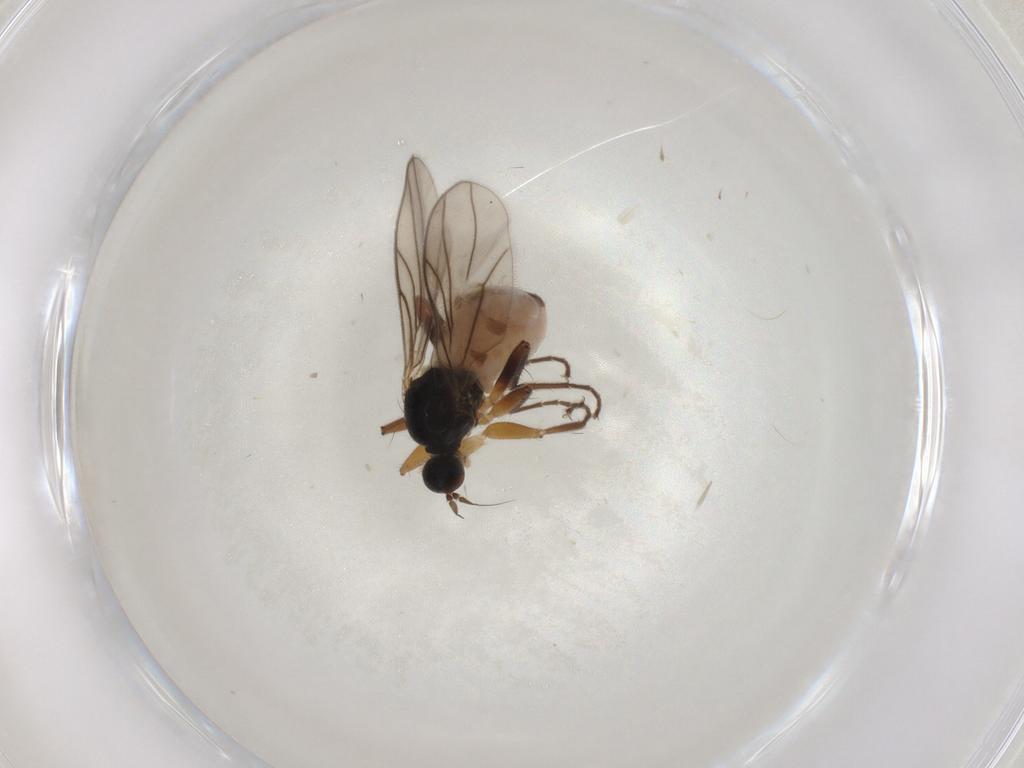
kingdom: Animalia
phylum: Arthropoda
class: Insecta
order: Diptera
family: Hybotidae
